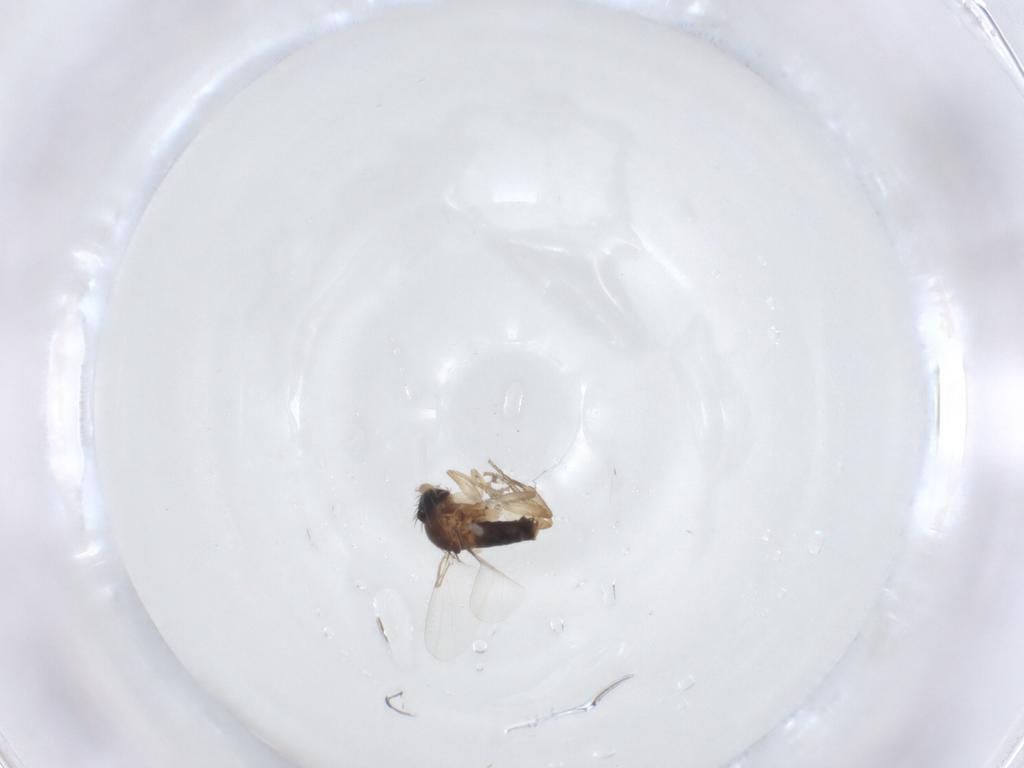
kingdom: Animalia
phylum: Arthropoda
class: Insecta
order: Diptera
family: Phoridae
